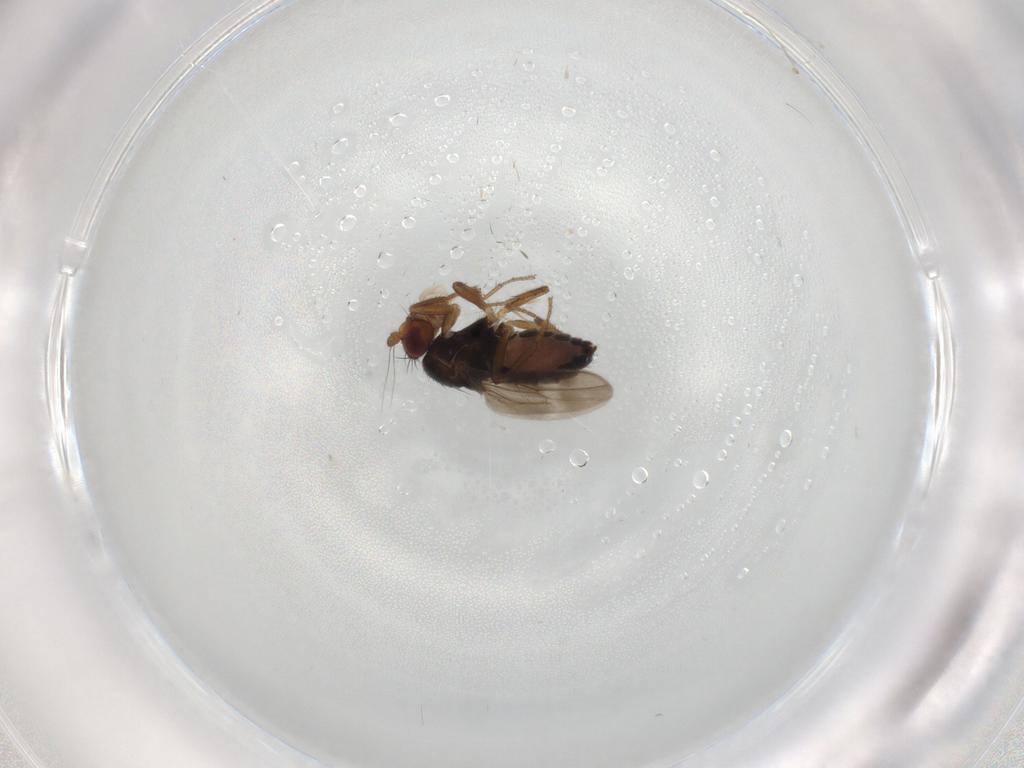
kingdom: Animalia
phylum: Arthropoda
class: Insecta
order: Diptera
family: Sphaeroceridae
